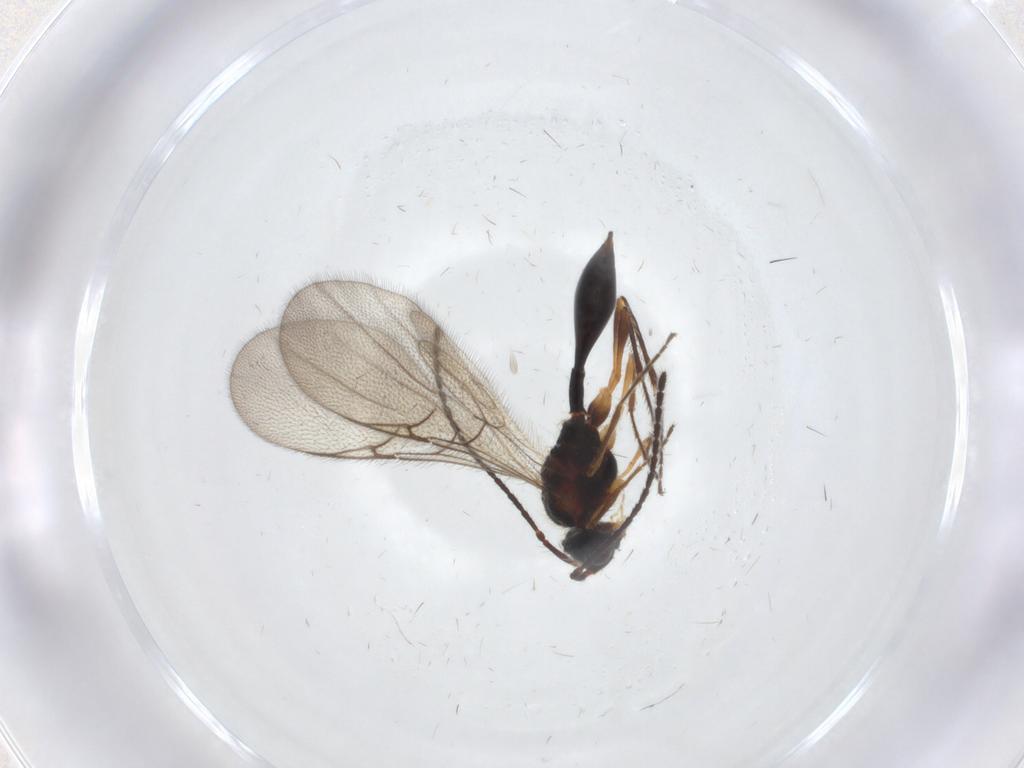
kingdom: Animalia
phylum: Arthropoda
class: Insecta
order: Hymenoptera
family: Diapriidae
